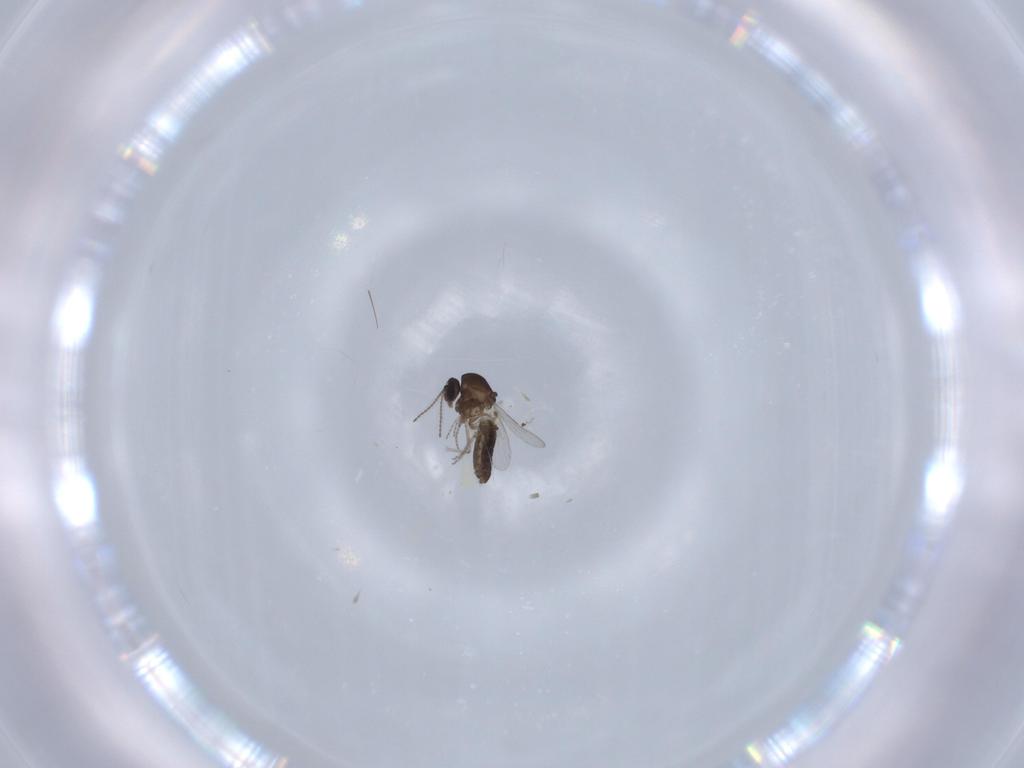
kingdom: Animalia
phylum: Arthropoda
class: Insecta
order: Diptera
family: Ceratopogonidae
